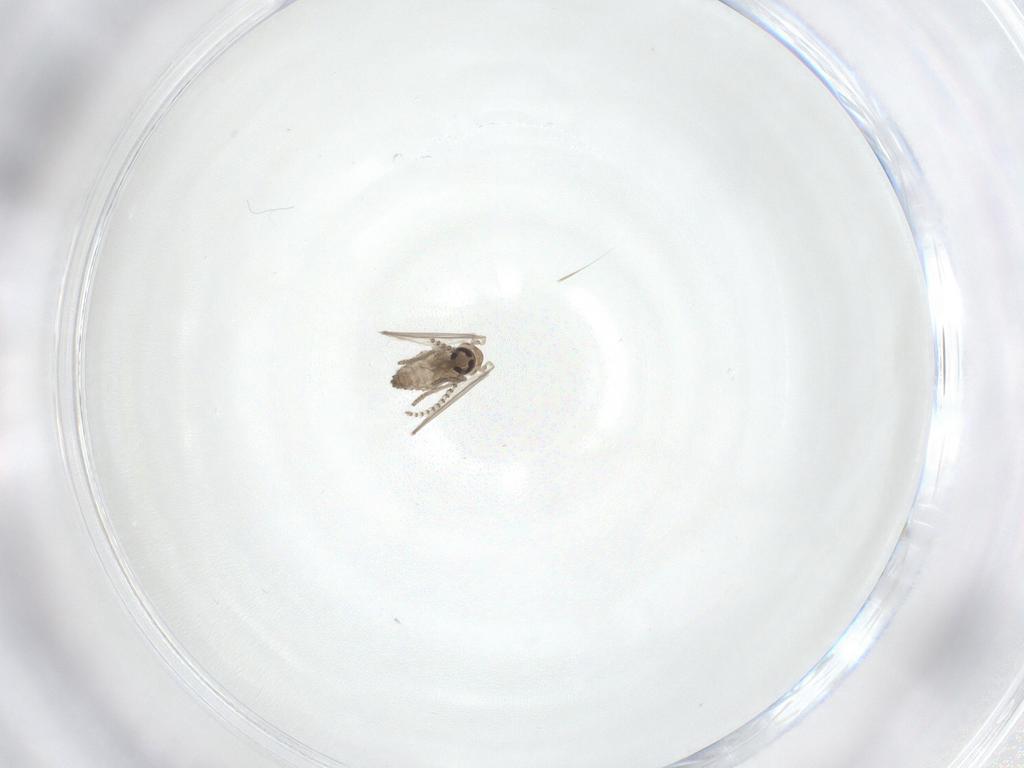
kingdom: Animalia
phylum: Arthropoda
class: Insecta
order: Diptera
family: Psychodidae
